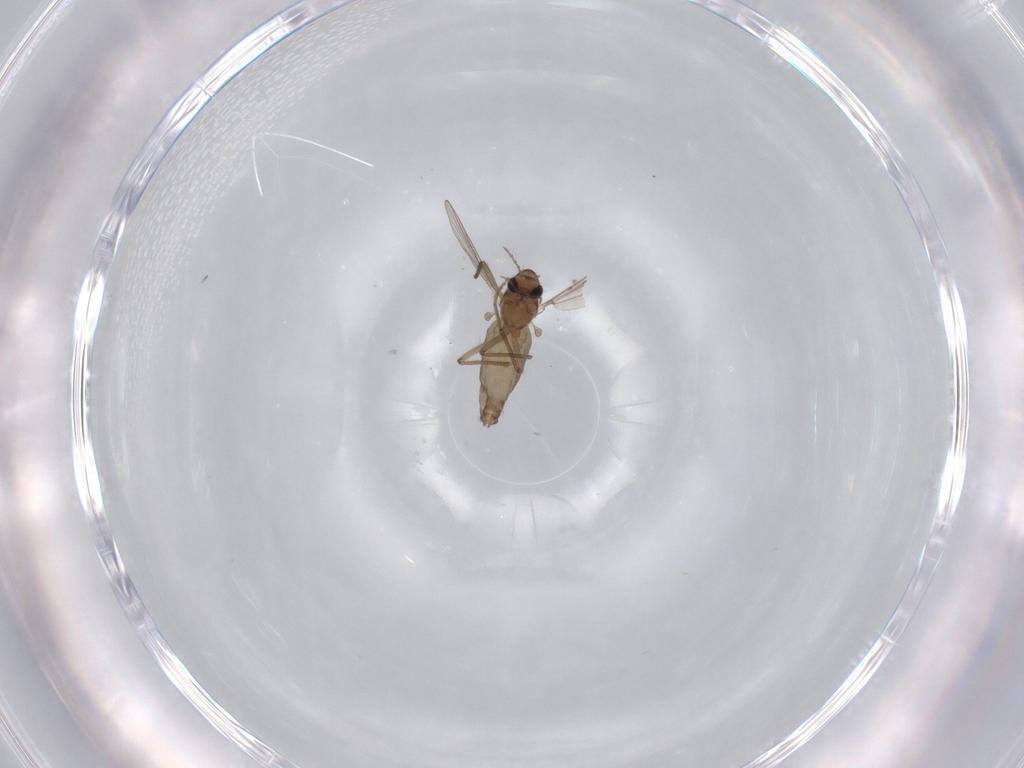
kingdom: Animalia
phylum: Arthropoda
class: Insecta
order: Diptera
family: Chironomidae
